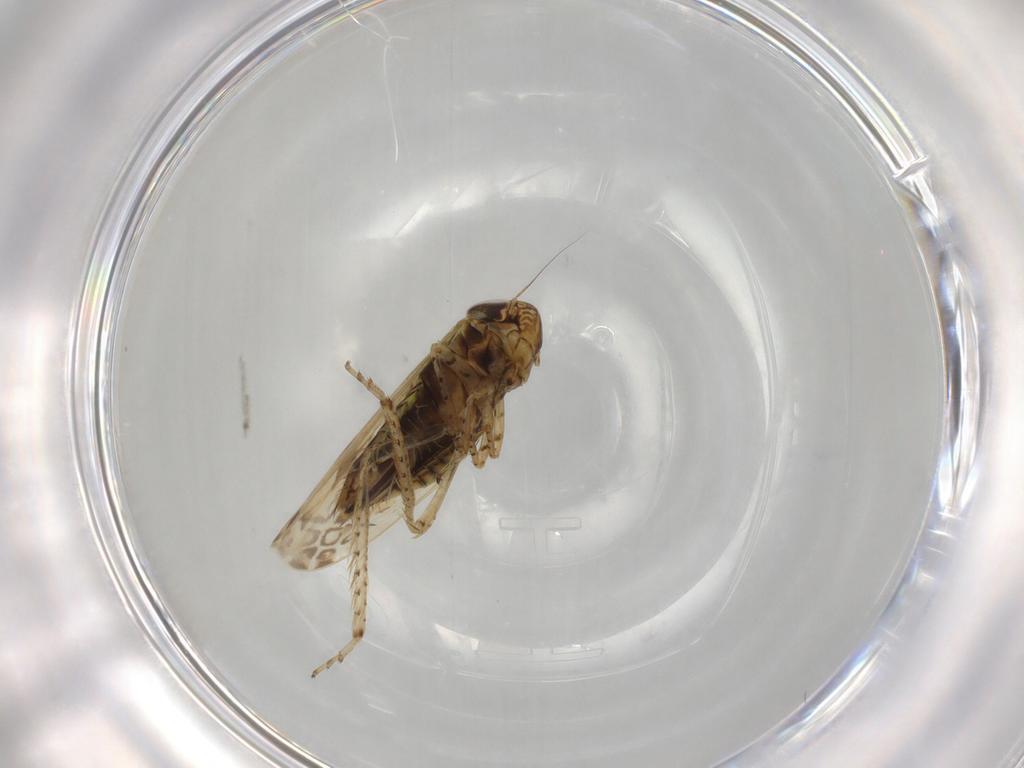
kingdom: Animalia
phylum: Arthropoda
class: Insecta
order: Hemiptera
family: Cicadellidae
